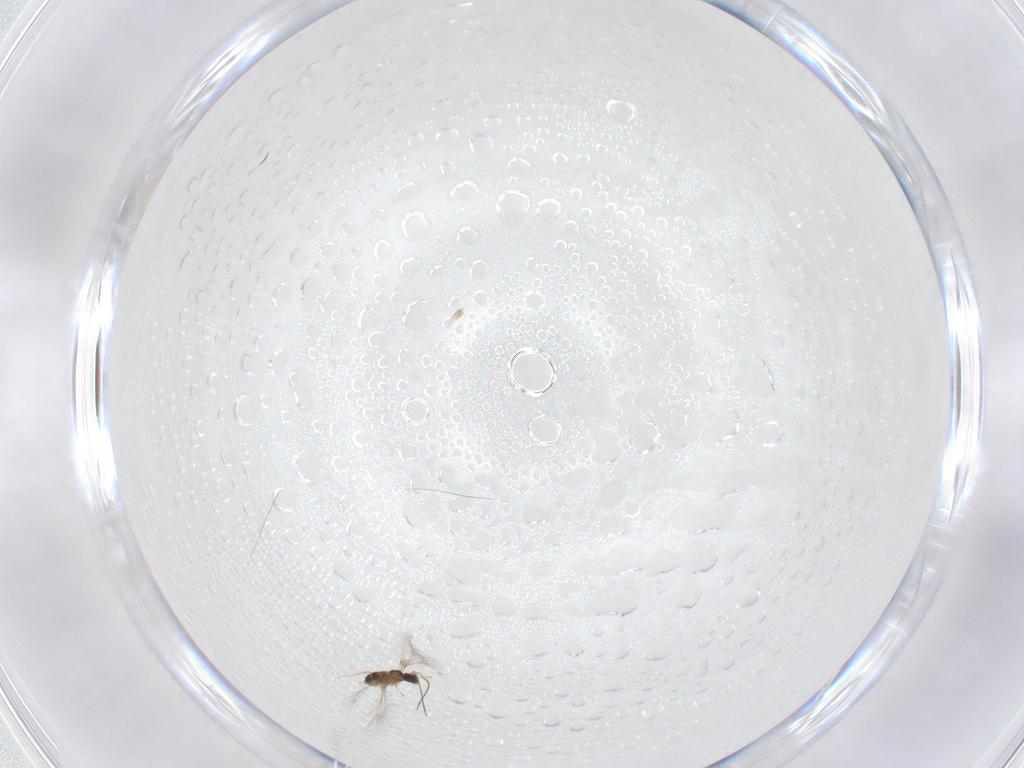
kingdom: Animalia
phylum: Arthropoda
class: Insecta
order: Hymenoptera
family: Mymaridae
